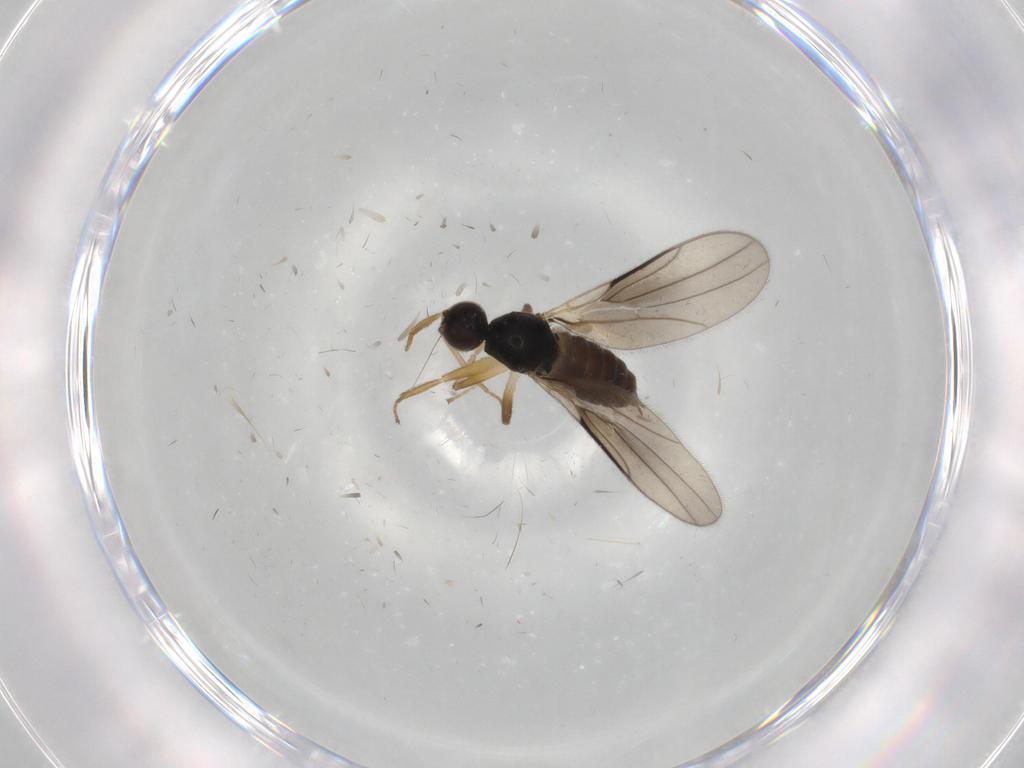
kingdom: Animalia
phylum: Arthropoda
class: Insecta
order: Diptera
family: Hybotidae
